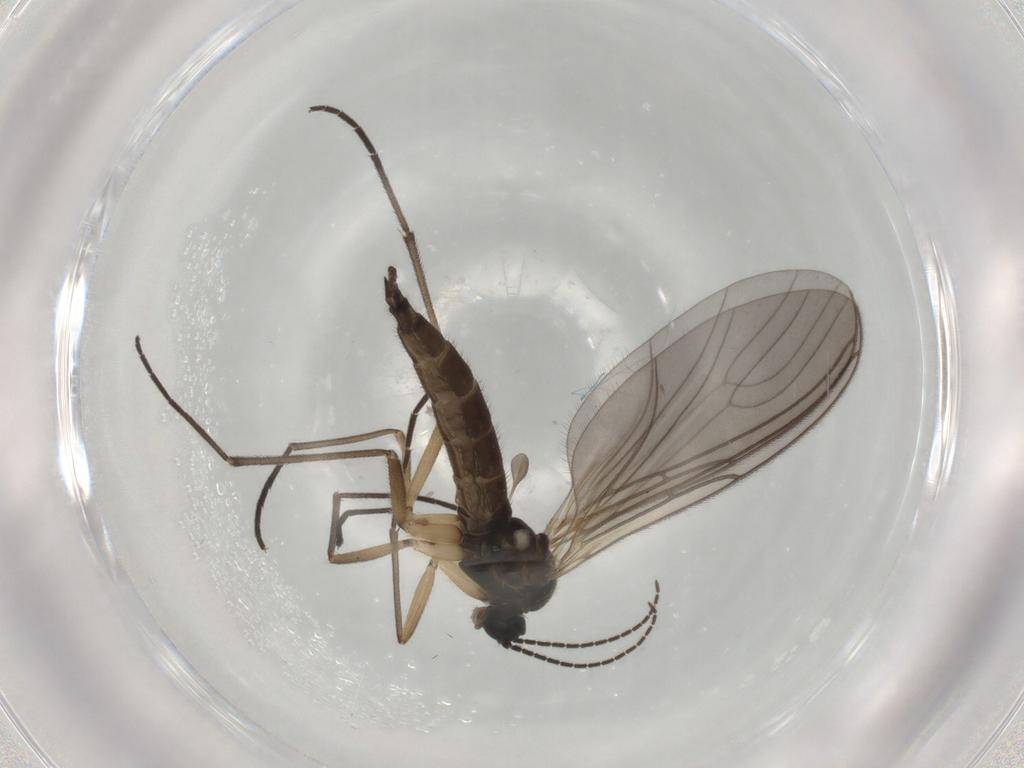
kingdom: Animalia
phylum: Arthropoda
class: Insecta
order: Diptera
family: Sciaridae
